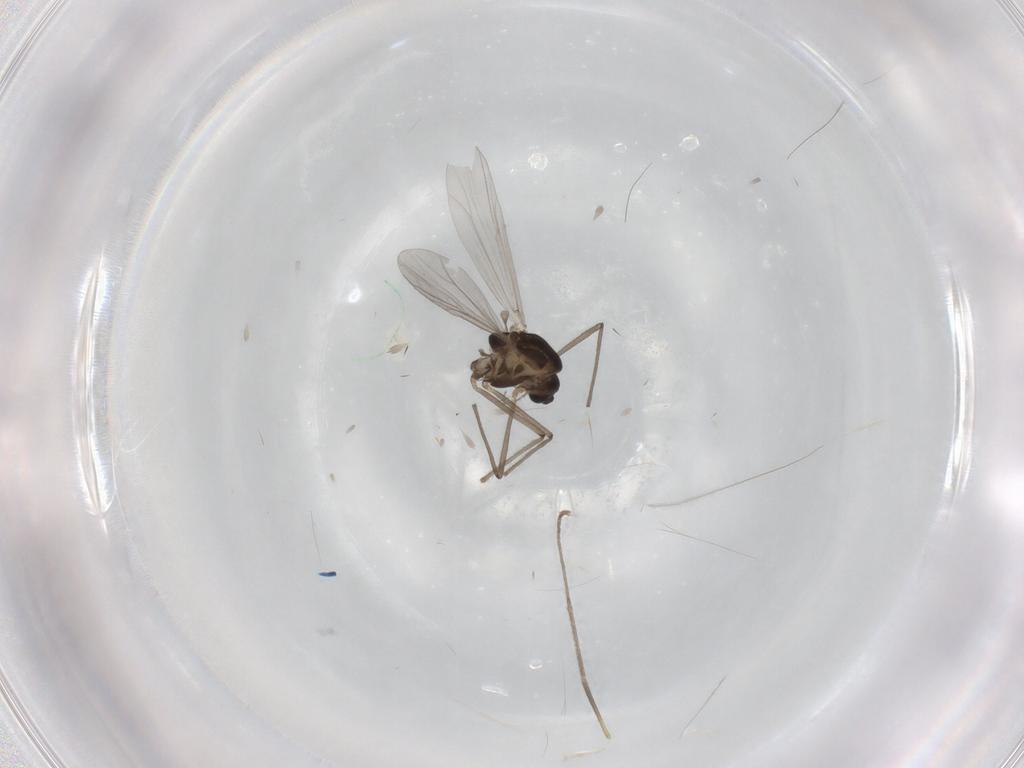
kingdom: Animalia
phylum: Arthropoda
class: Insecta
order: Diptera
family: Chironomidae
